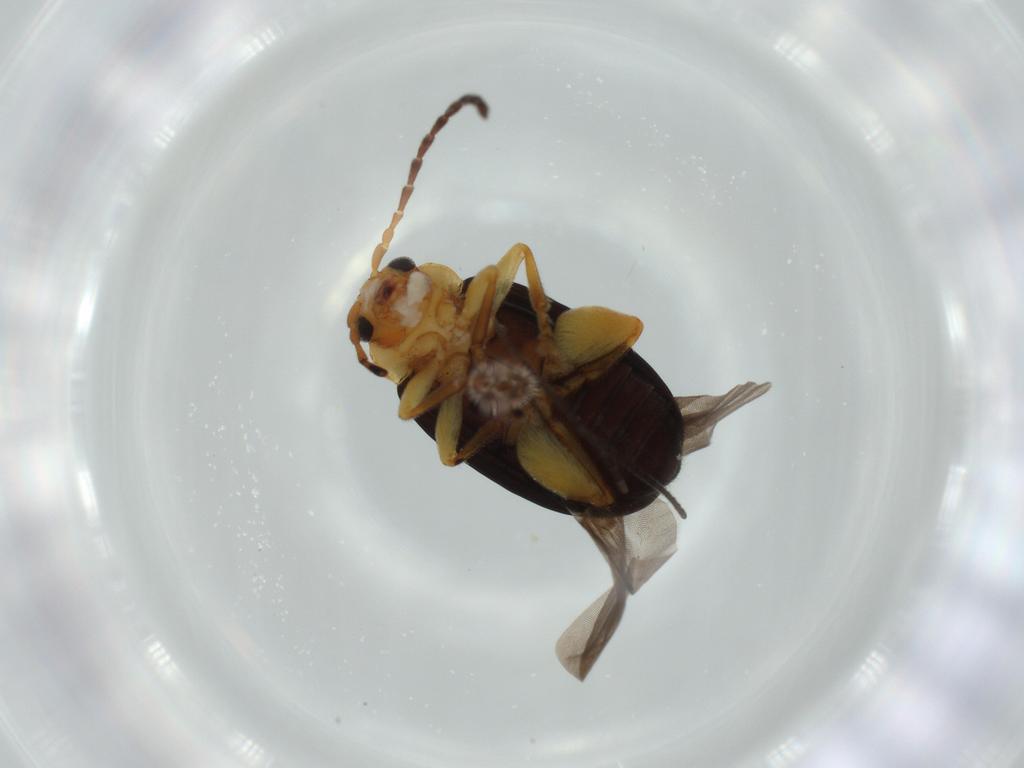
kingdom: Animalia
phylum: Arthropoda
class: Insecta
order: Coleoptera
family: Chrysomelidae
